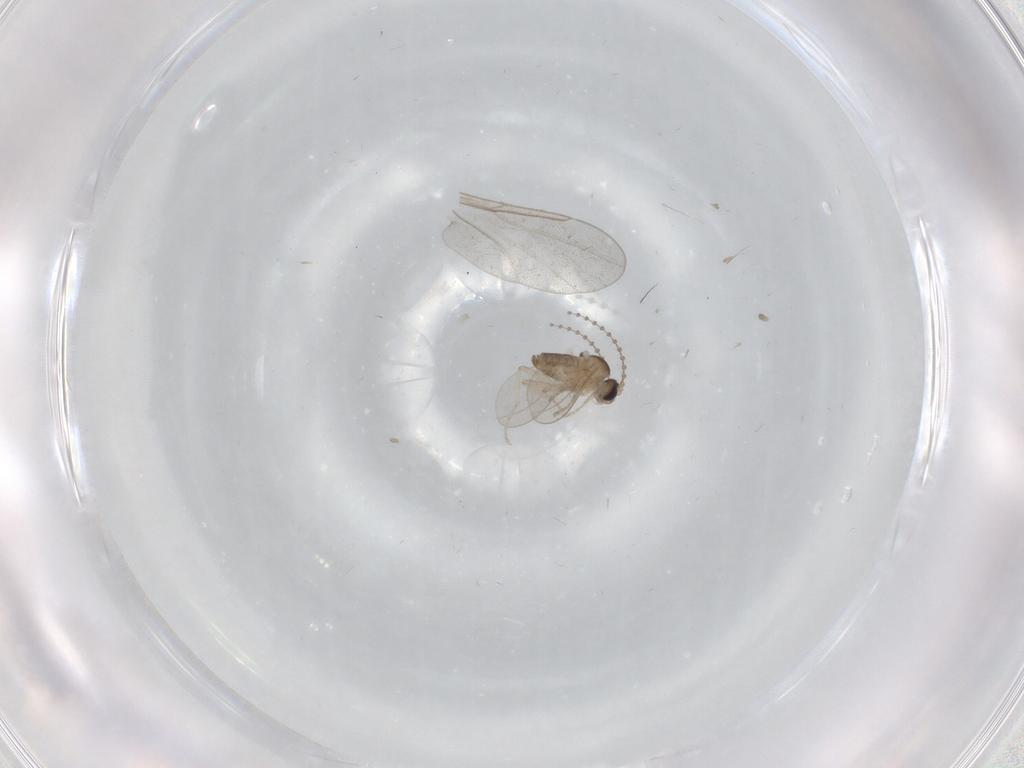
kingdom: Animalia
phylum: Arthropoda
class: Insecta
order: Diptera
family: Cecidomyiidae
